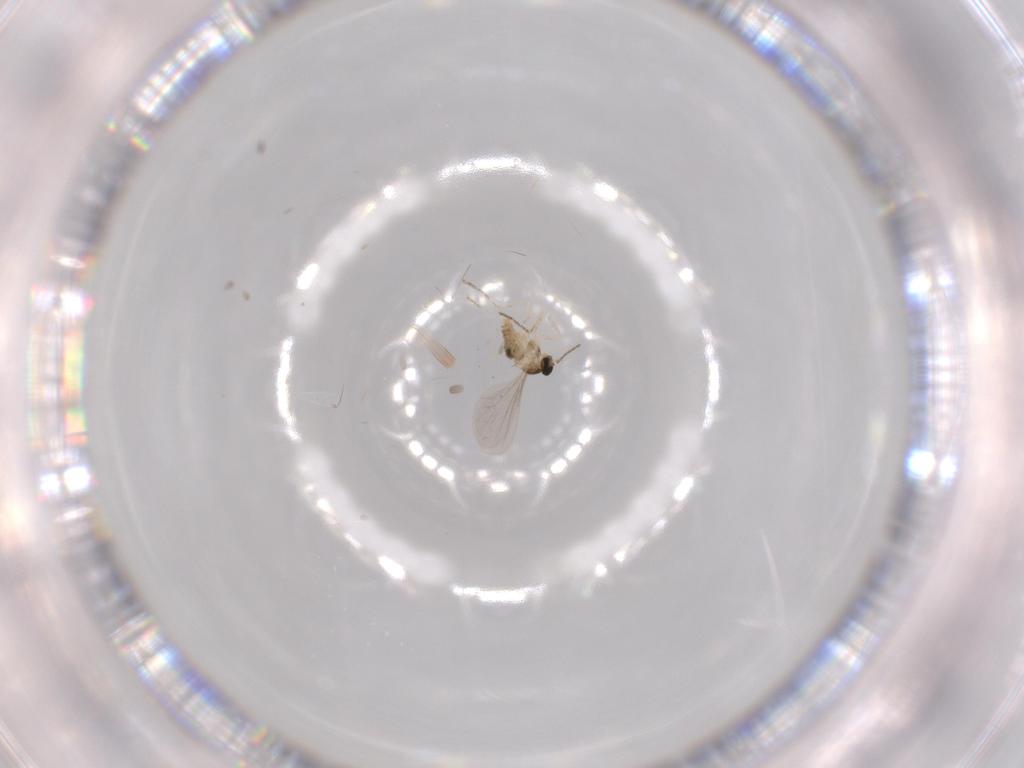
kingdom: Animalia
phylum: Arthropoda
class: Insecta
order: Diptera
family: Cecidomyiidae
